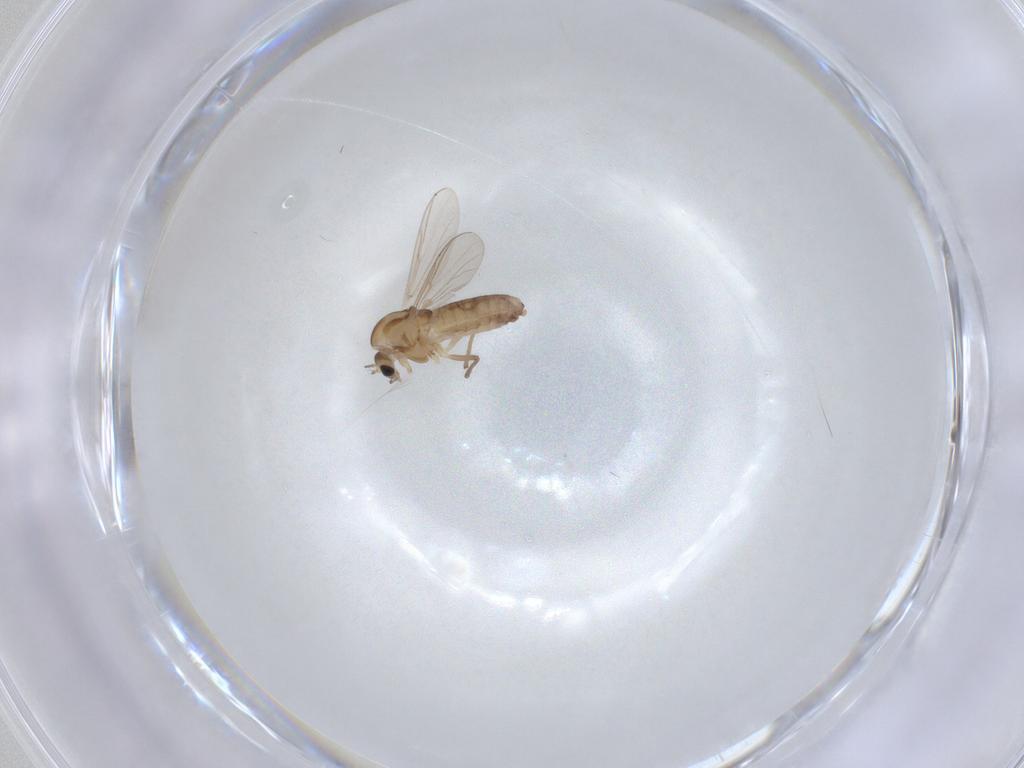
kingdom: Animalia
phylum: Arthropoda
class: Insecta
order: Diptera
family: Chironomidae
